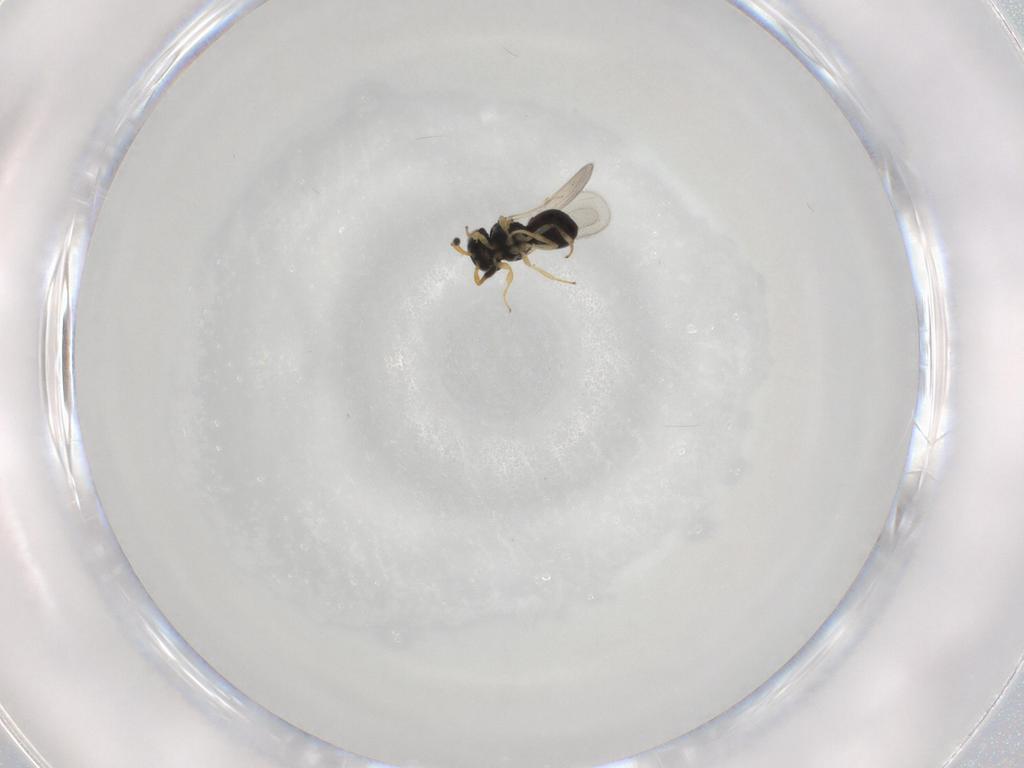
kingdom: Animalia
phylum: Arthropoda
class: Insecta
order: Hymenoptera
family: Scelionidae
